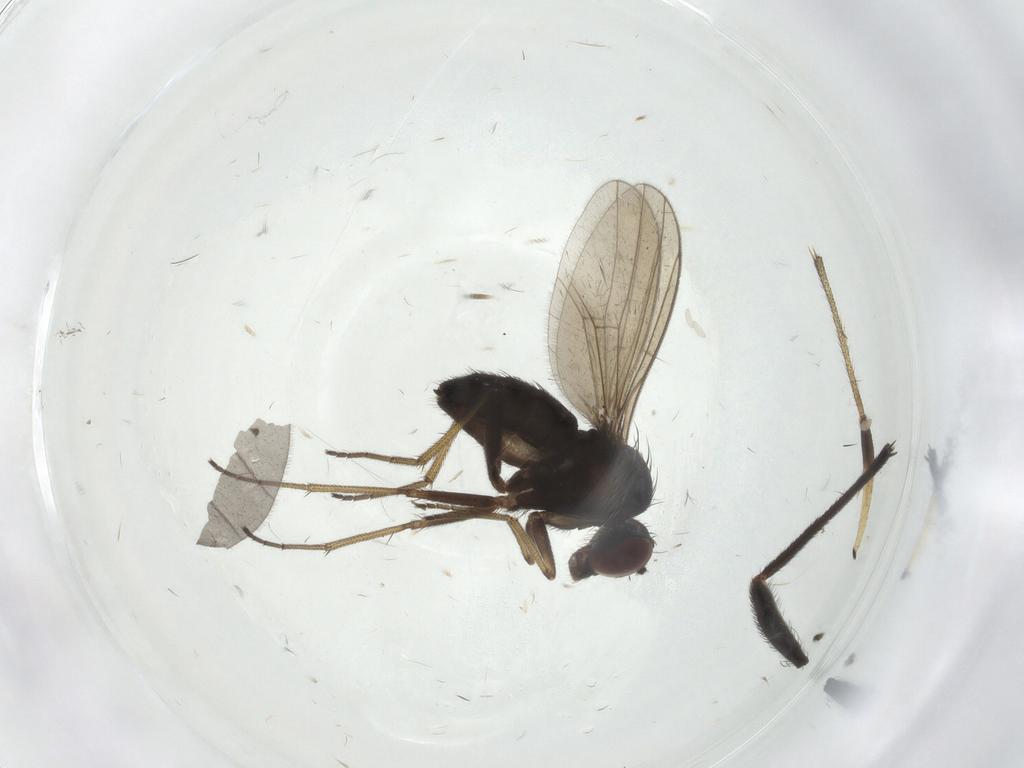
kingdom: Animalia
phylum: Arthropoda
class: Insecta
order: Diptera
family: Dolichopodidae
